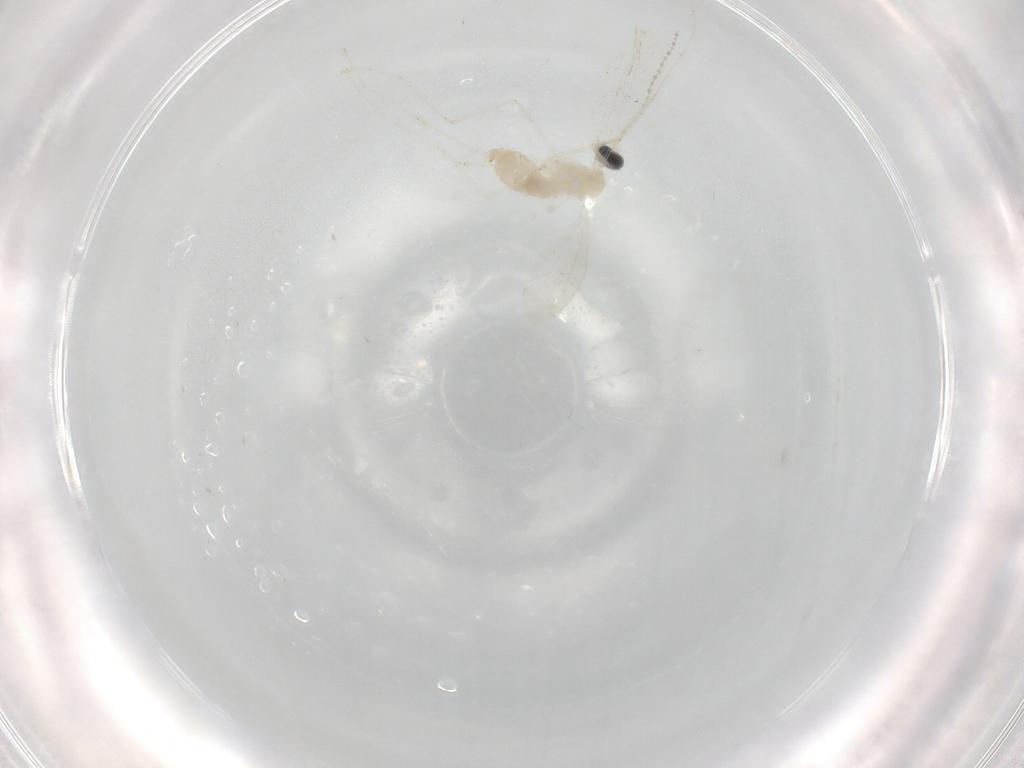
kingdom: Animalia
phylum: Arthropoda
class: Insecta
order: Diptera
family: Cecidomyiidae
